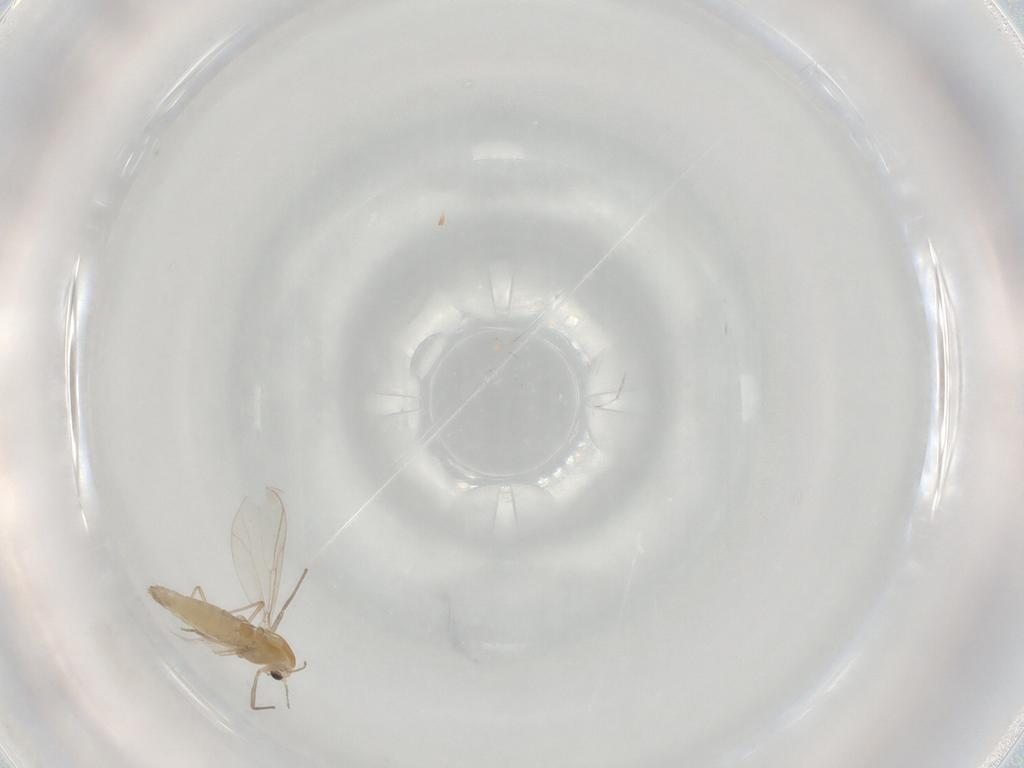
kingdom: Animalia
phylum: Arthropoda
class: Insecta
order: Diptera
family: Chironomidae
